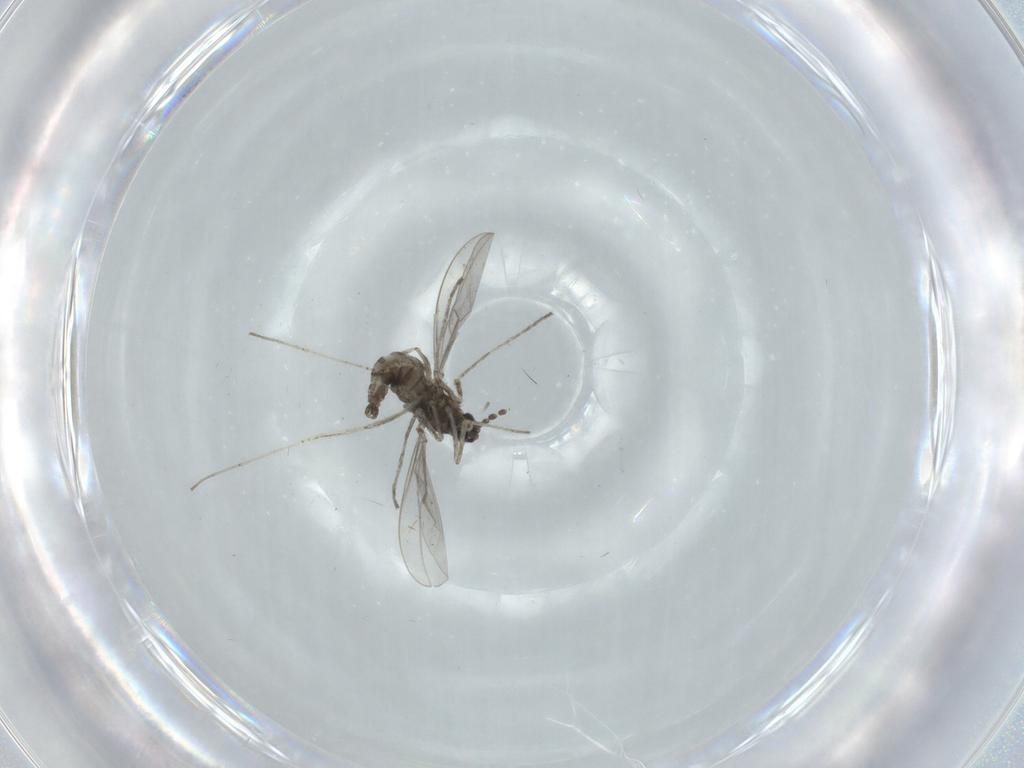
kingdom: Animalia
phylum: Arthropoda
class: Insecta
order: Diptera
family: Cecidomyiidae
